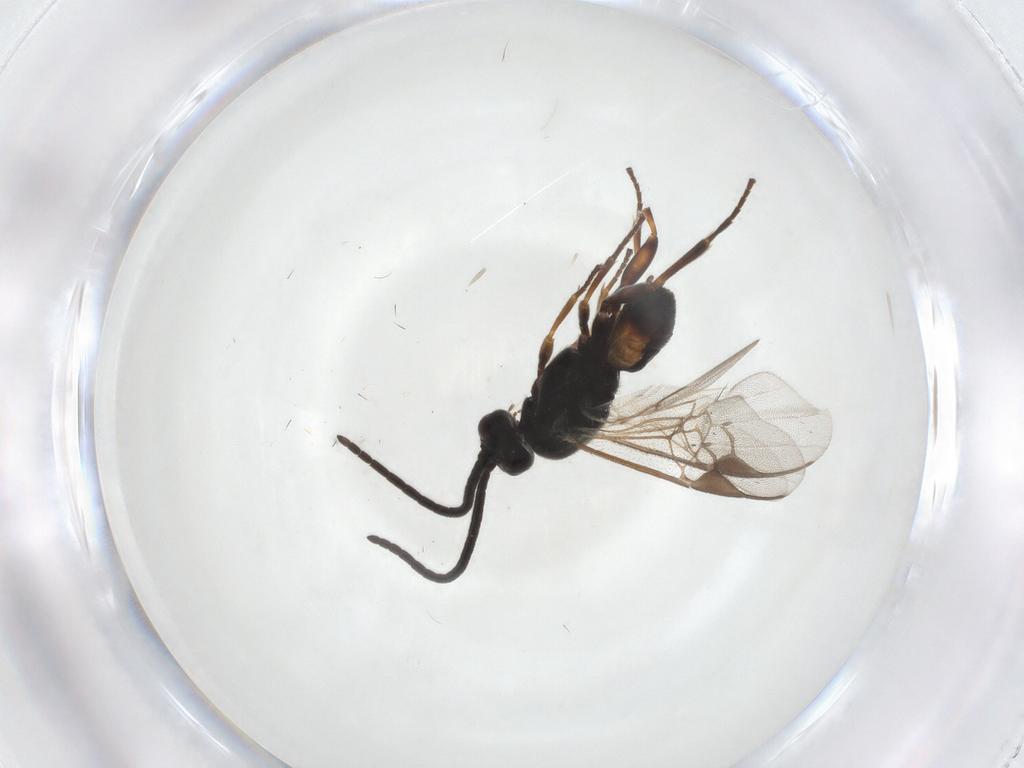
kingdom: Animalia
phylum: Arthropoda
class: Insecta
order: Hymenoptera
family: Braconidae
